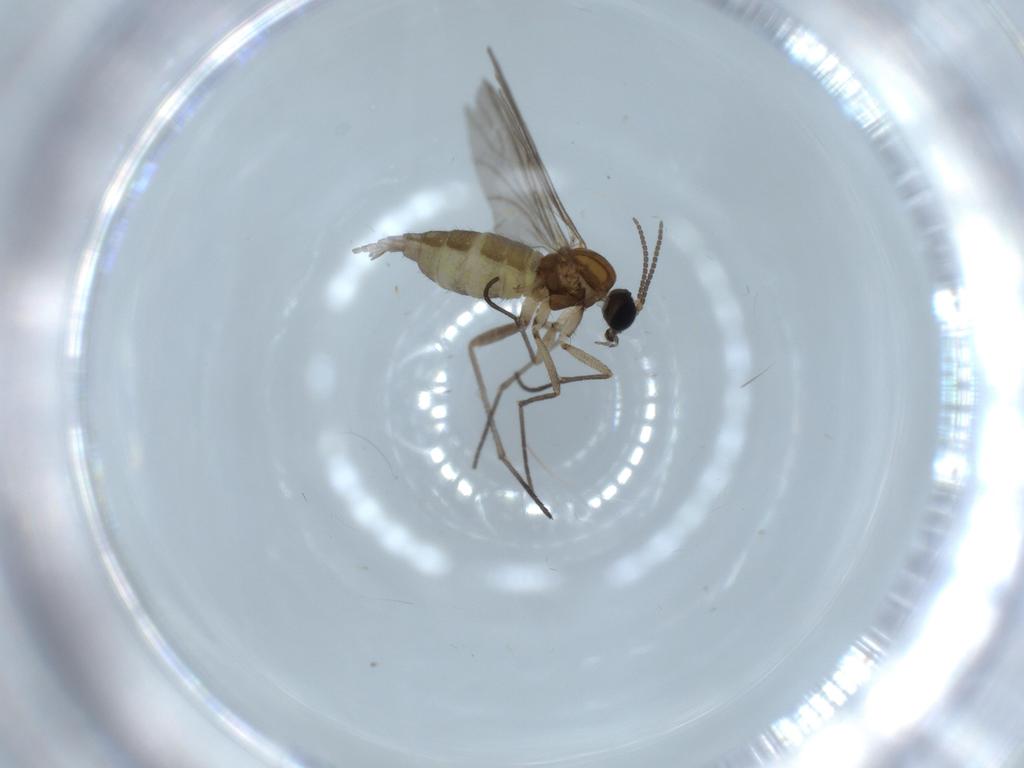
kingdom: Animalia
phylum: Arthropoda
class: Insecta
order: Diptera
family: Sciaridae
